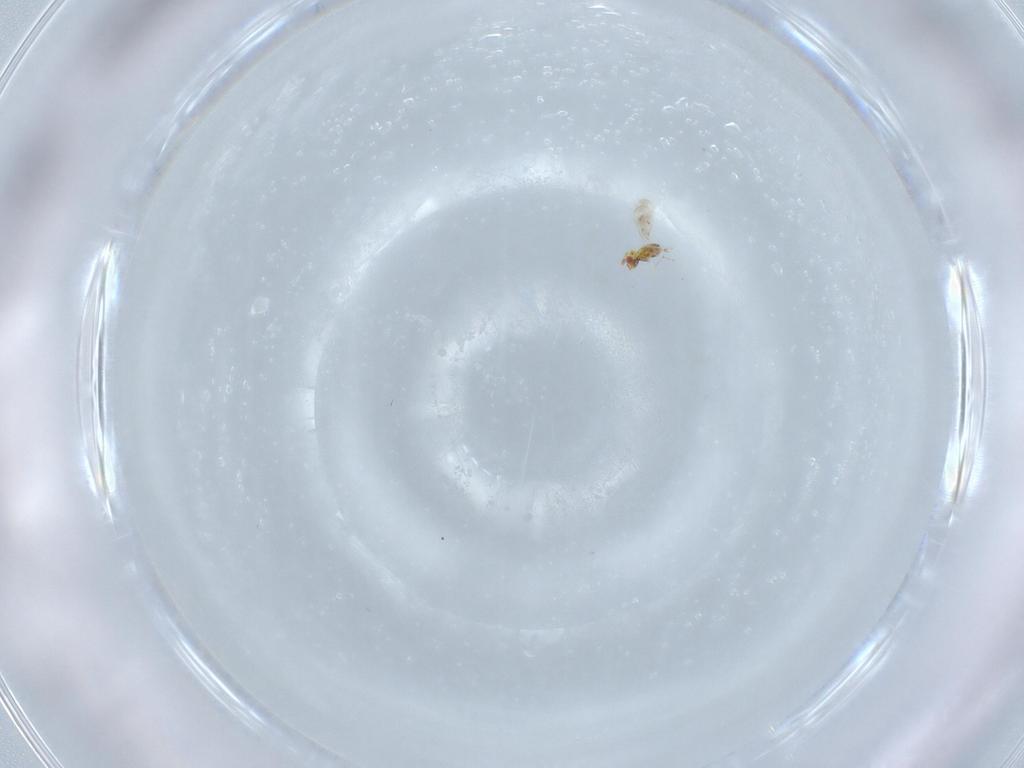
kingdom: Animalia
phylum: Arthropoda
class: Insecta
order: Hymenoptera
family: Eulophidae
